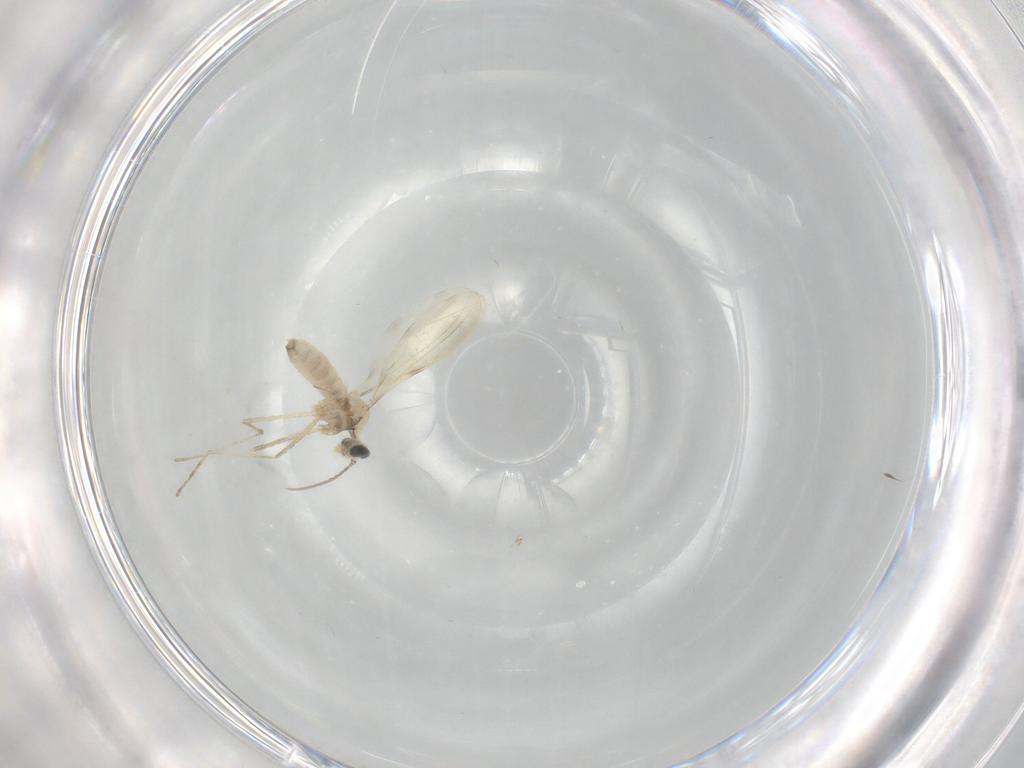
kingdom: Animalia
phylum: Arthropoda
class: Insecta
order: Diptera
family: Cecidomyiidae
